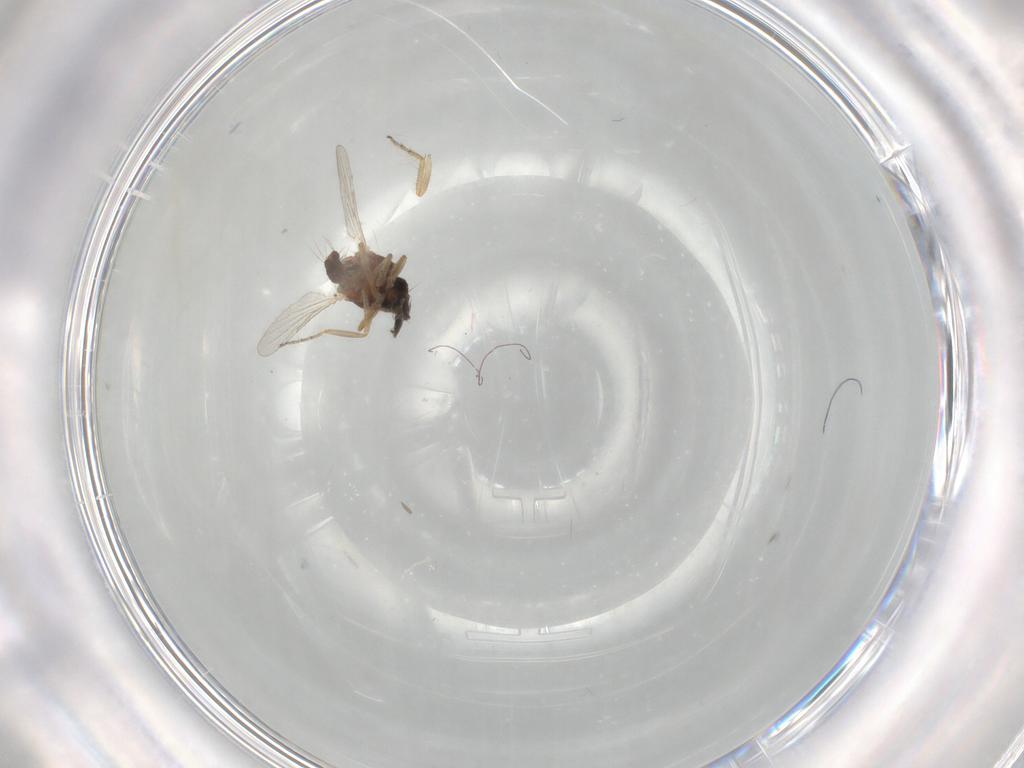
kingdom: Animalia
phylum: Arthropoda
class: Insecta
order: Diptera
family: Ceratopogonidae
